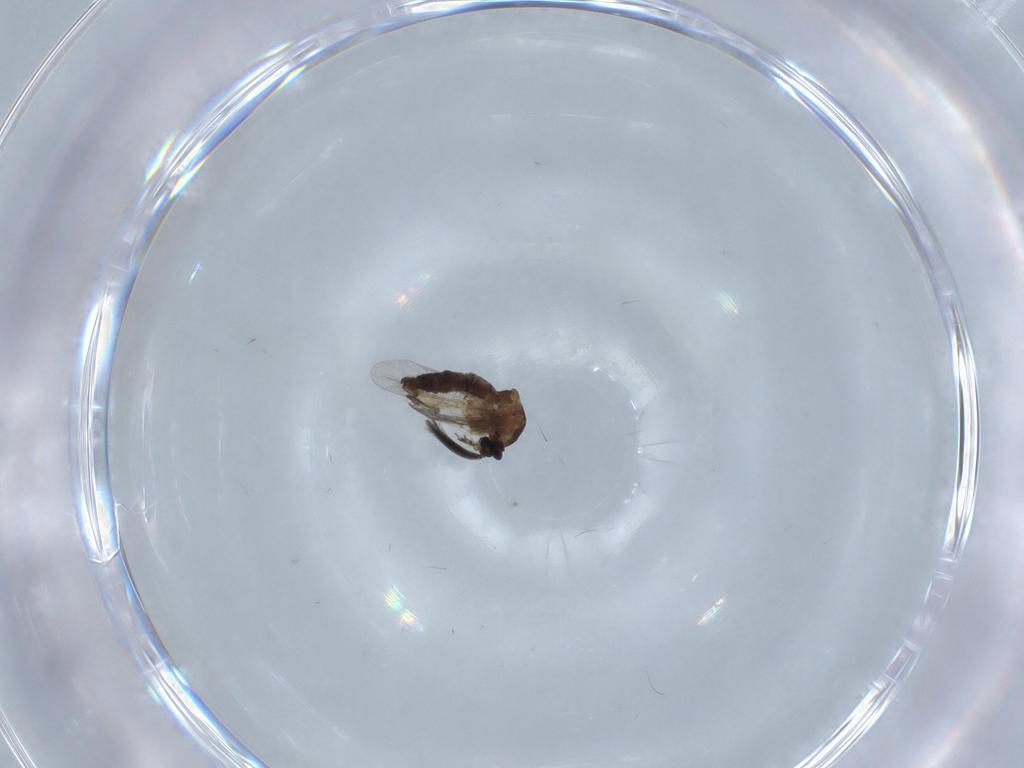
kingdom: Animalia
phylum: Arthropoda
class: Insecta
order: Diptera
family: Ceratopogonidae
